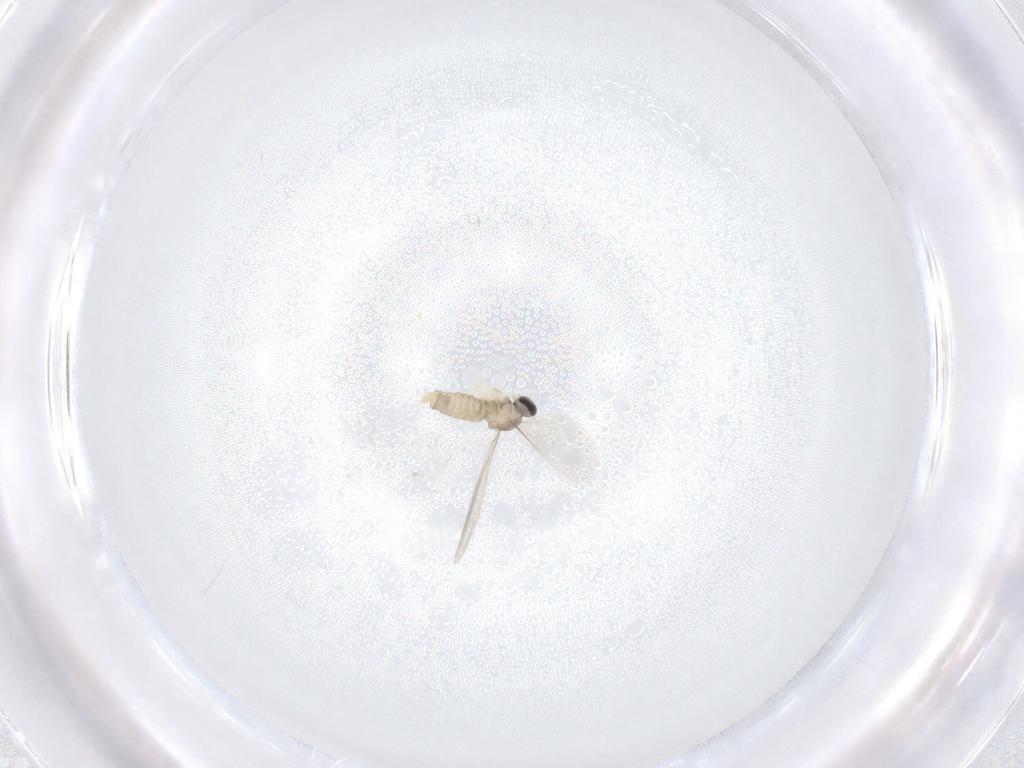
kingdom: Animalia
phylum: Arthropoda
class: Insecta
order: Diptera
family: Cecidomyiidae
